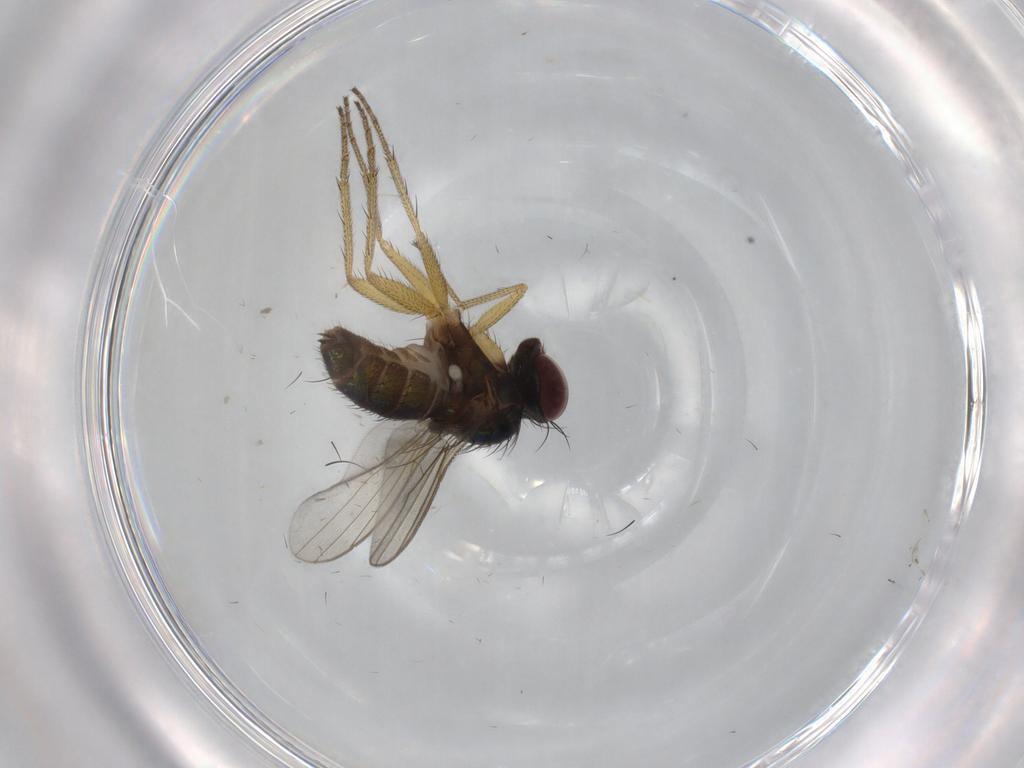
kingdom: Animalia
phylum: Arthropoda
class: Insecta
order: Diptera
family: Dolichopodidae
